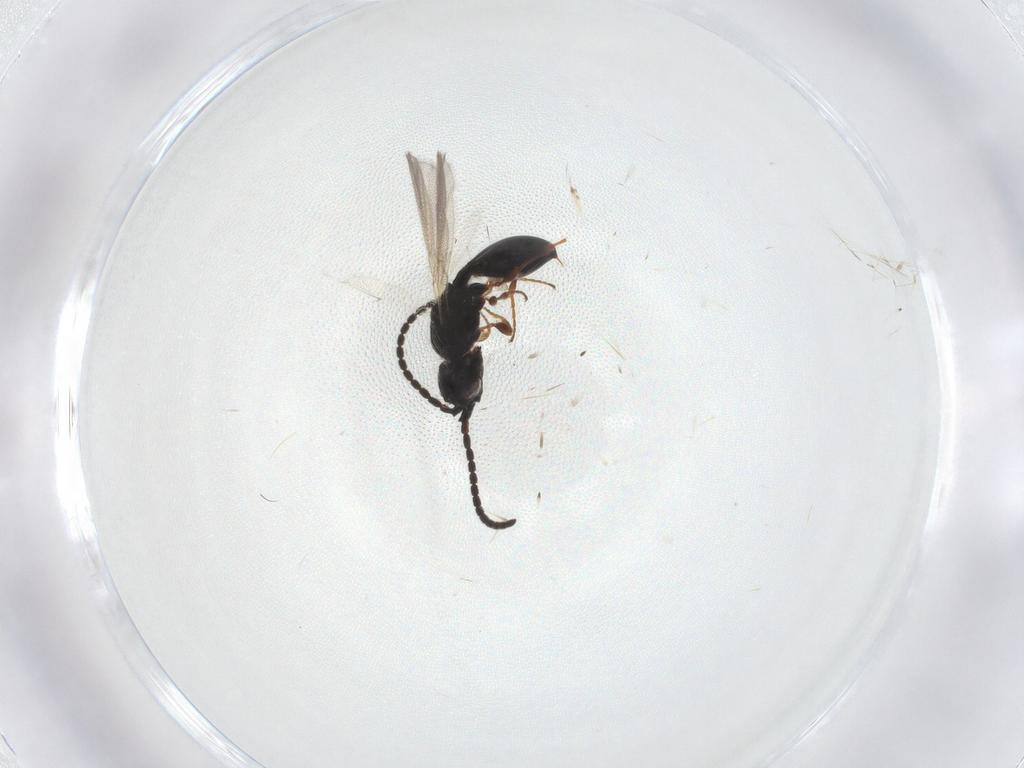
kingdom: Animalia
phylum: Arthropoda
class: Insecta
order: Hymenoptera
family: Diapriidae
